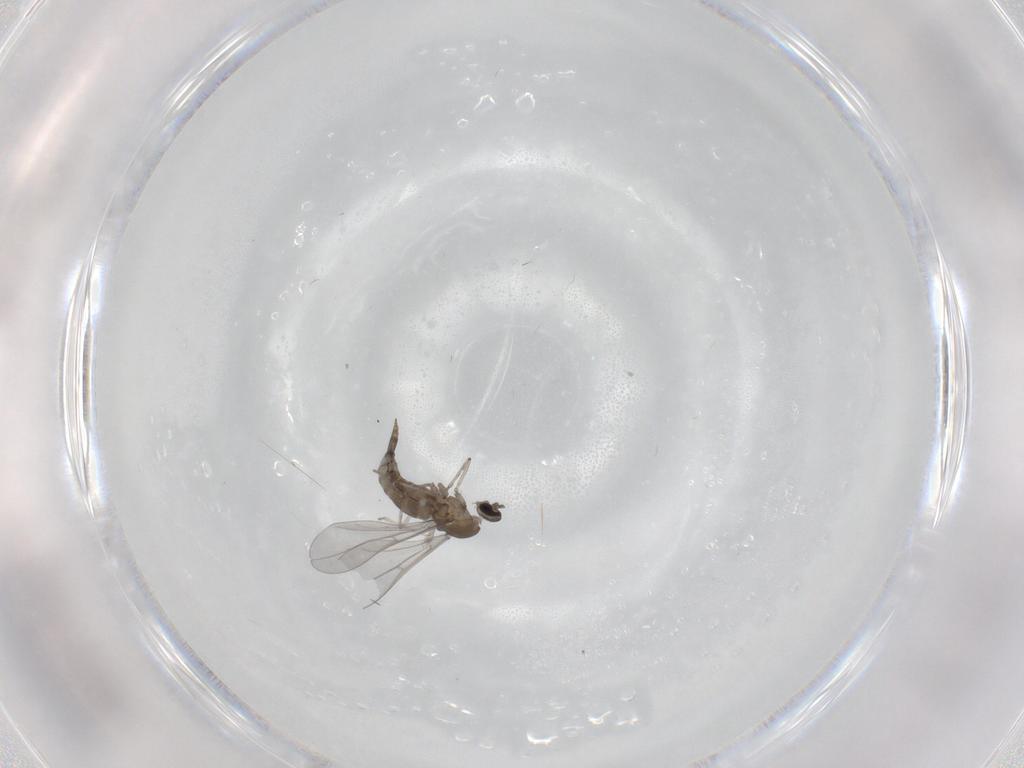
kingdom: Animalia
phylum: Arthropoda
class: Insecta
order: Diptera
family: Cecidomyiidae
